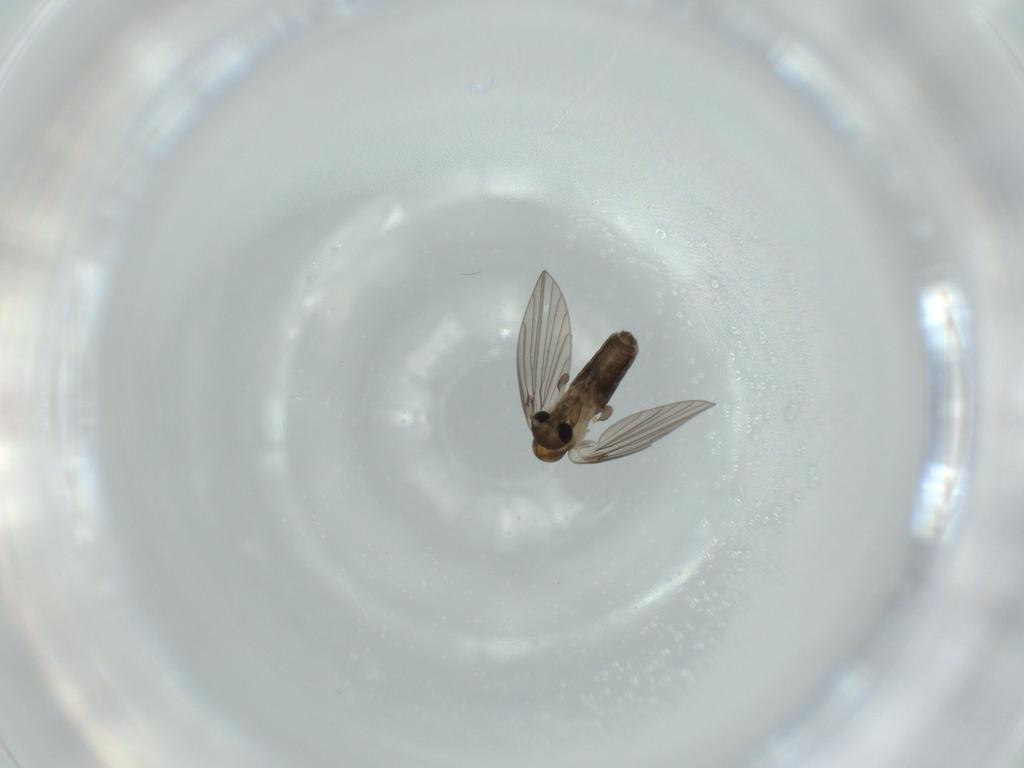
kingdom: Animalia
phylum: Arthropoda
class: Insecta
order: Diptera
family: Psychodidae
